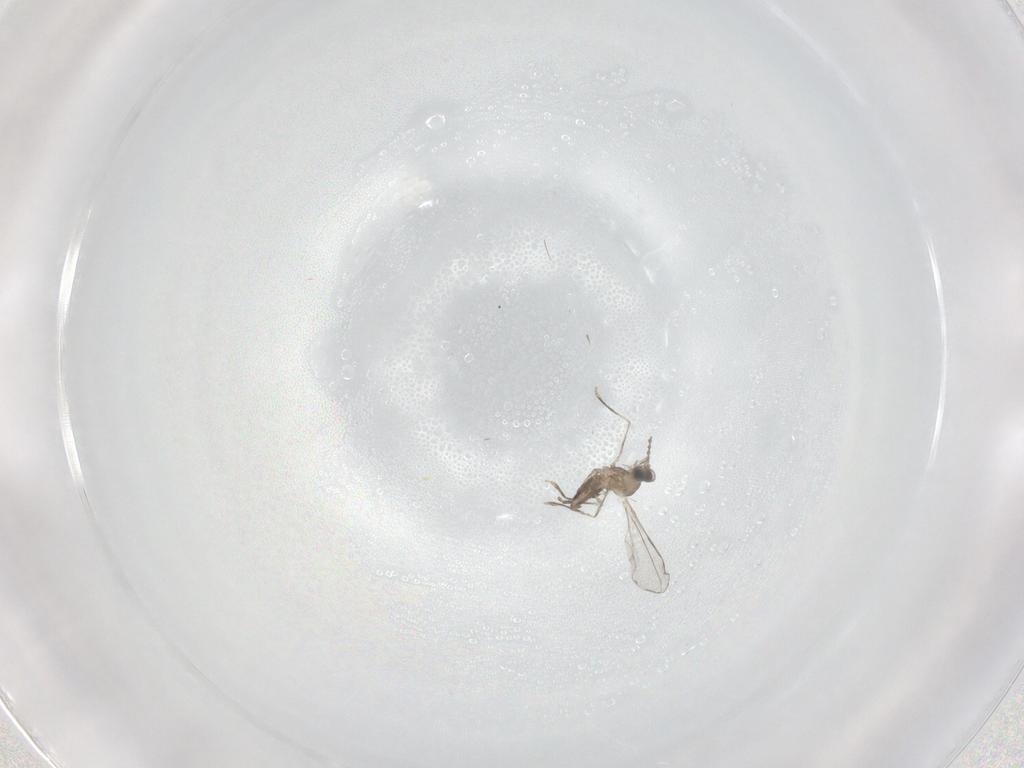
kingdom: Animalia
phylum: Arthropoda
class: Insecta
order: Diptera
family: Cecidomyiidae
